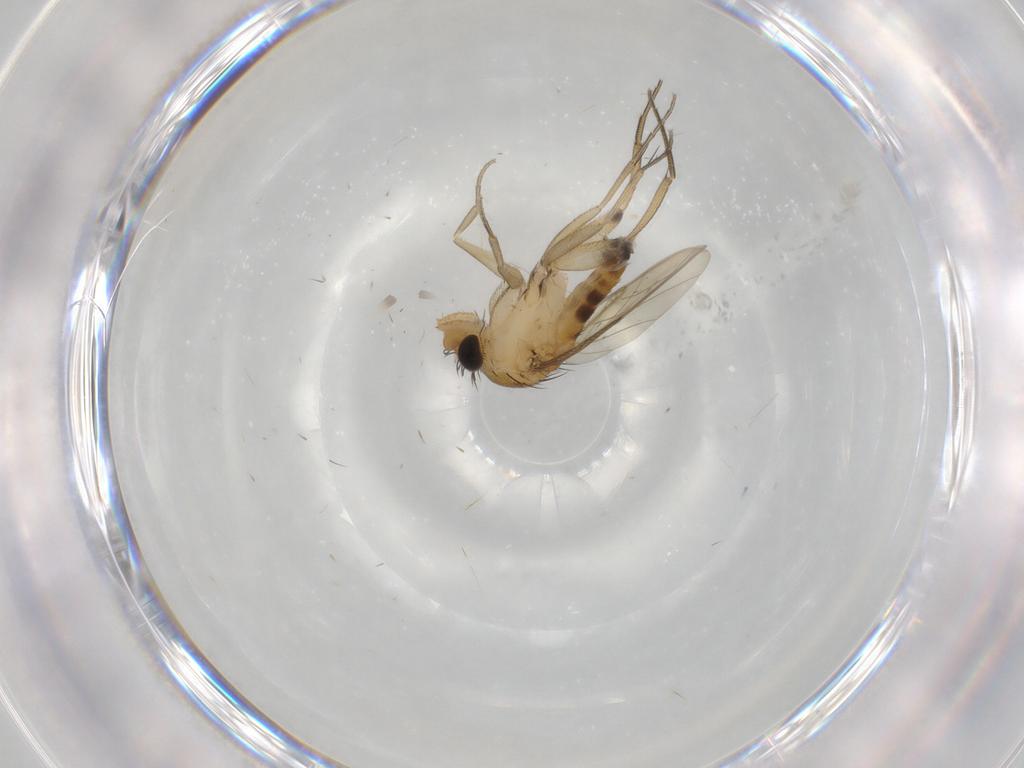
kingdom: Animalia
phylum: Arthropoda
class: Insecta
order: Diptera
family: Phoridae
